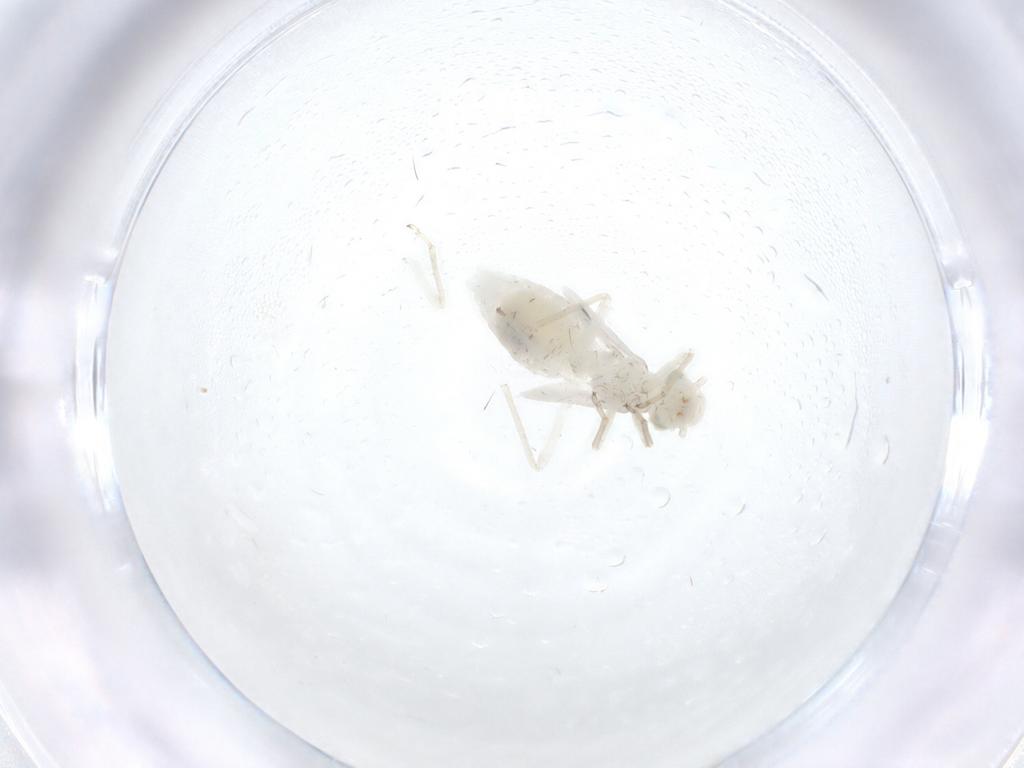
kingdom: Animalia
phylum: Arthropoda
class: Insecta
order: Psocodea
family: Caeciliusidae
